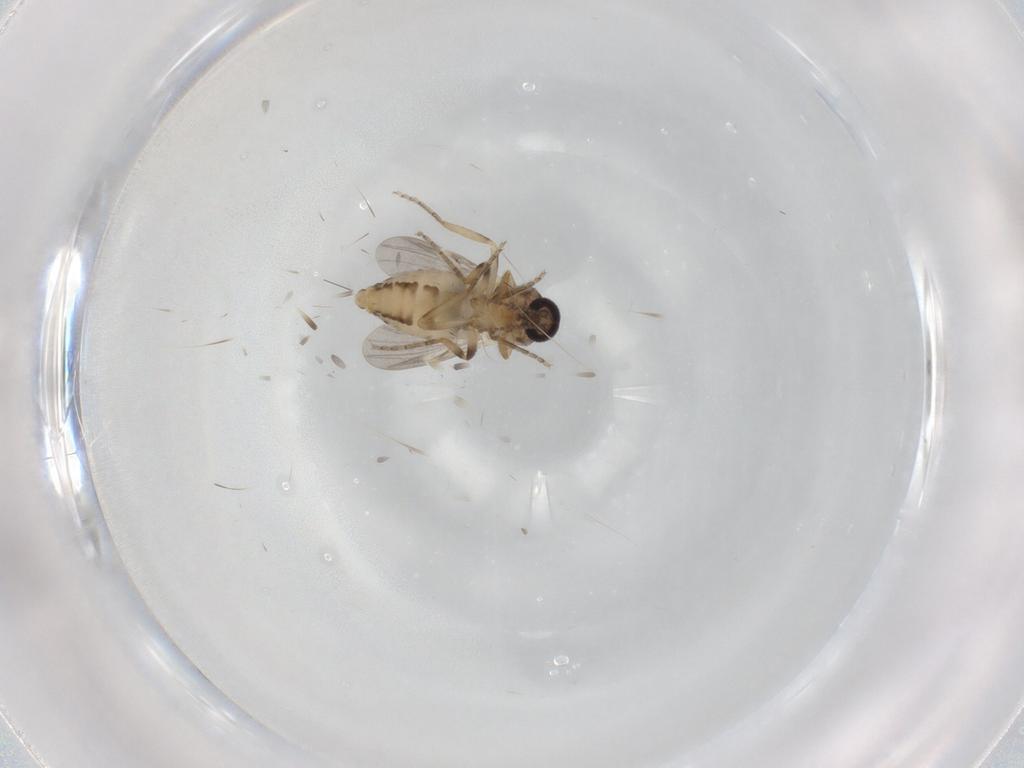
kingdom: Animalia
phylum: Arthropoda
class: Insecta
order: Diptera
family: Ceratopogonidae
